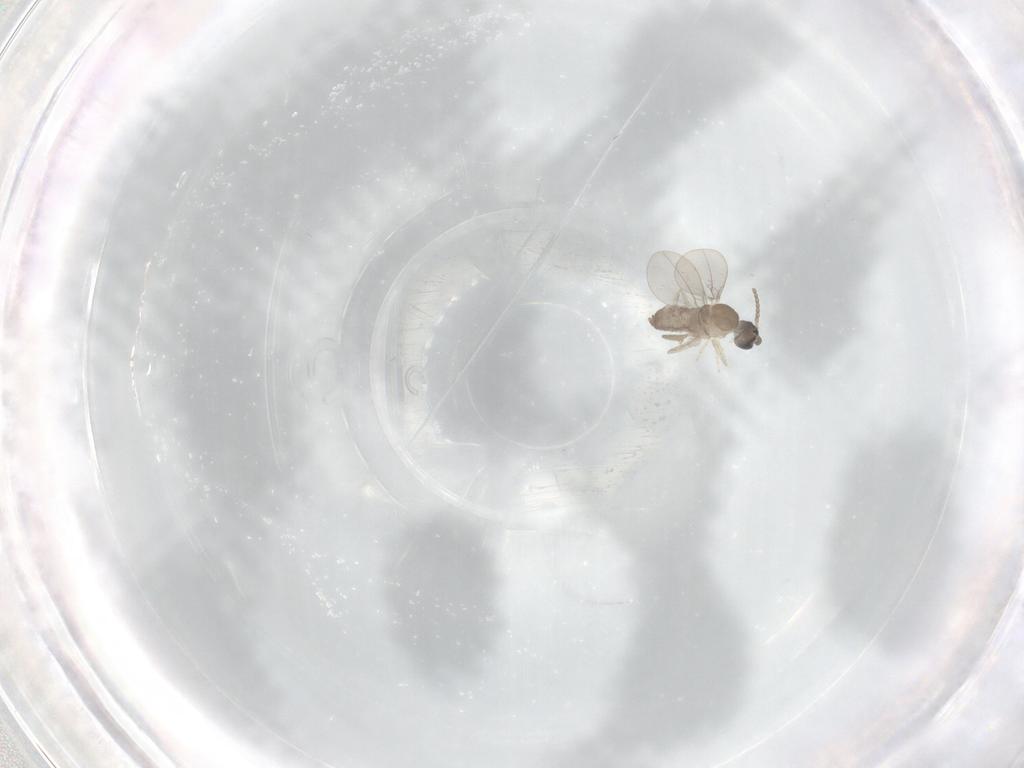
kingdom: Animalia
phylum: Arthropoda
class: Insecta
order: Diptera
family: Cecidomyiidae
